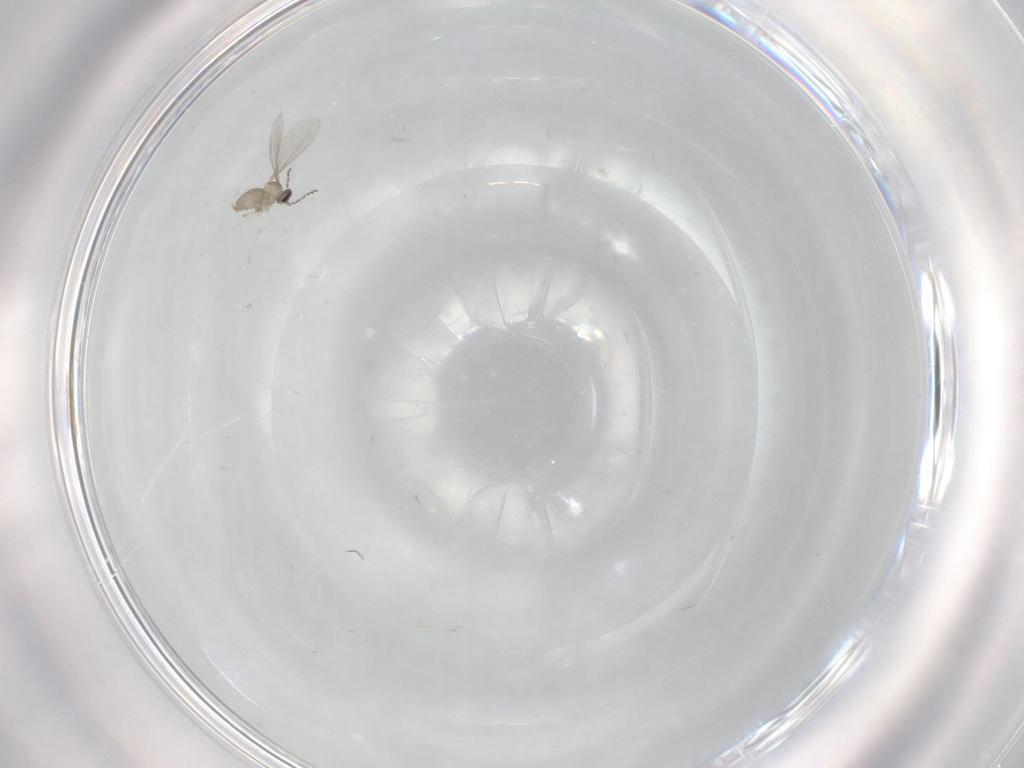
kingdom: Animalia
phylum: Arthropoda
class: Insecta
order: Diptera
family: Cecidomyiidae
